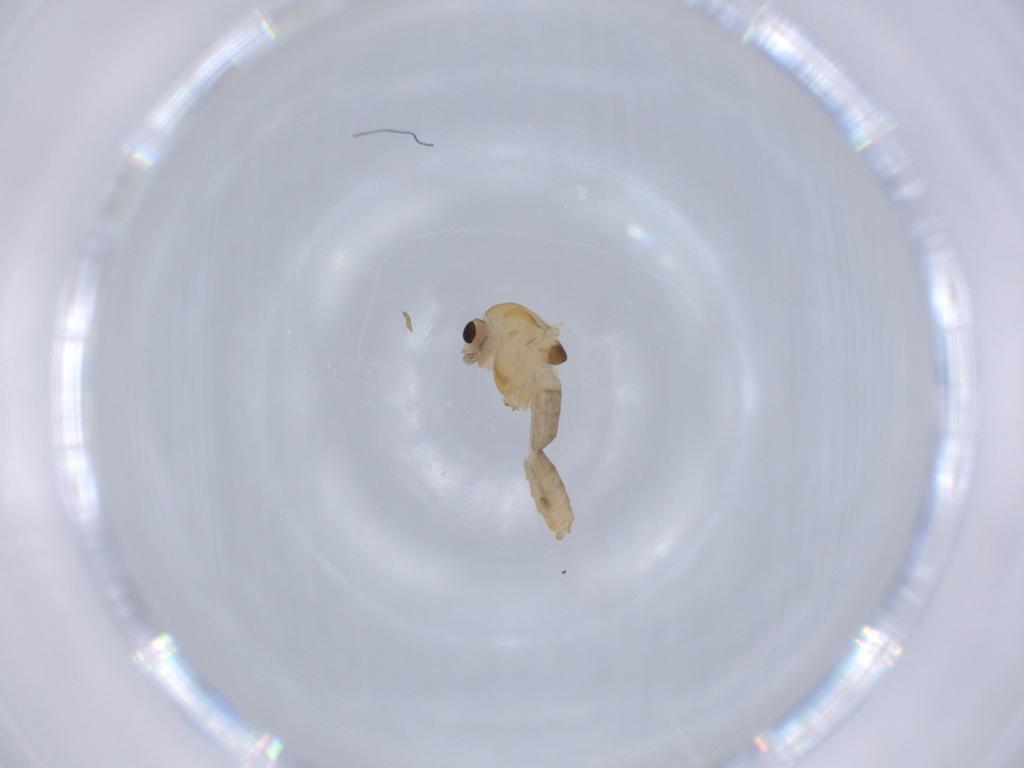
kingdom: Animalia
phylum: Arthropoda
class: Insecta
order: Diptera
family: Chironomidae
